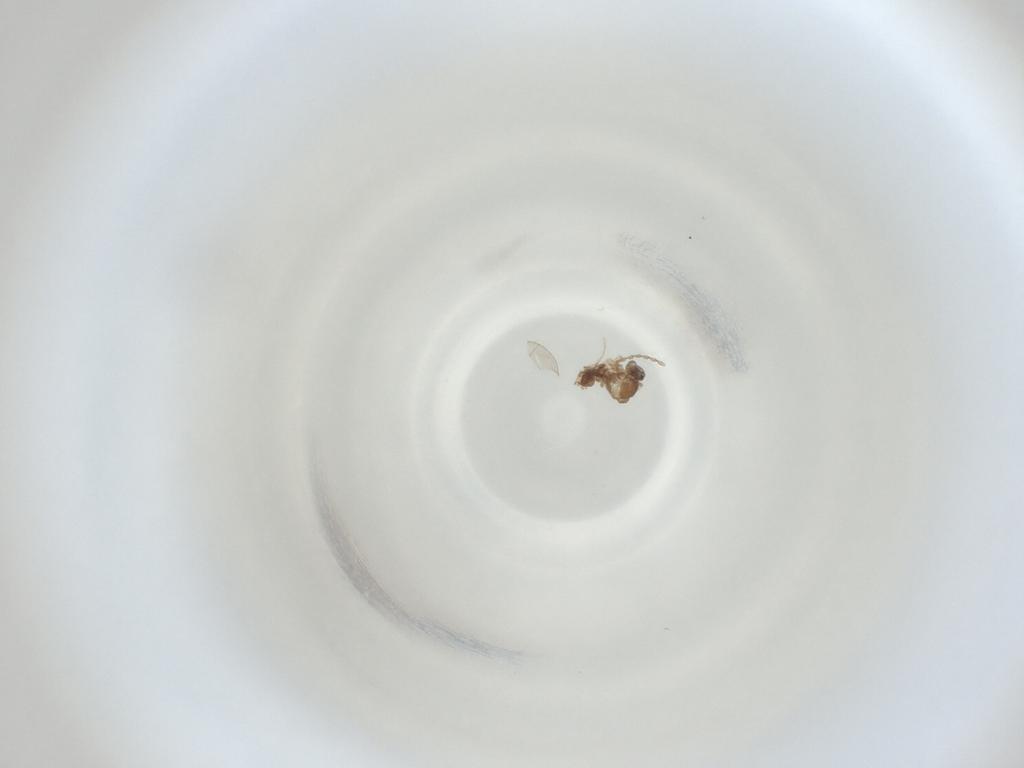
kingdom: Animalia
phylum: Arthropoda
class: Insecta
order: Diptera
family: Cecidomyiidae
